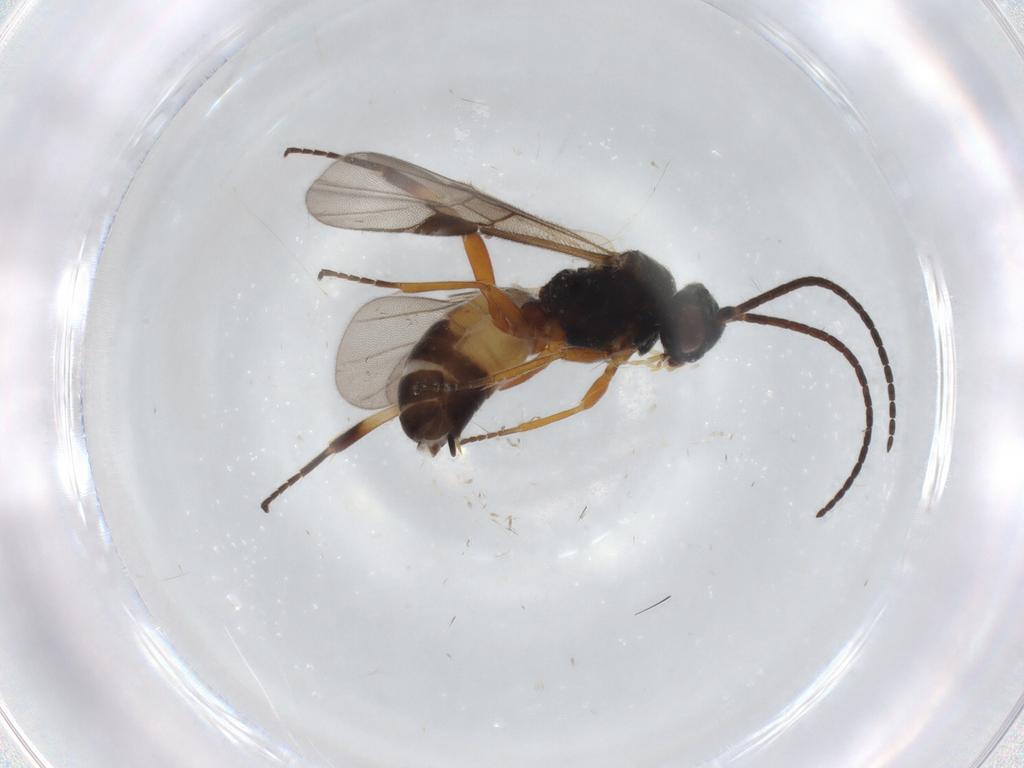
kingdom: Animalia
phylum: Arthropoda
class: Insecta
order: Hymenoptera
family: Braconidae
